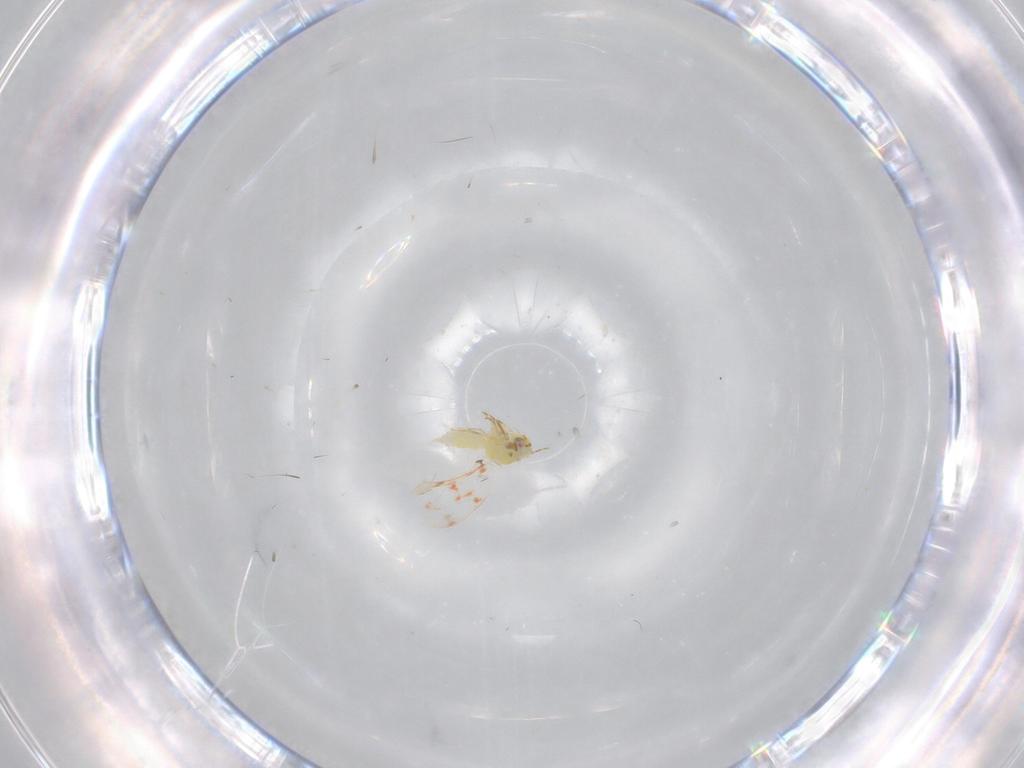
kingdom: Animalia
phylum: Arthropoda
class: Insecta
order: Hemiptera
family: Aleyrodidae
